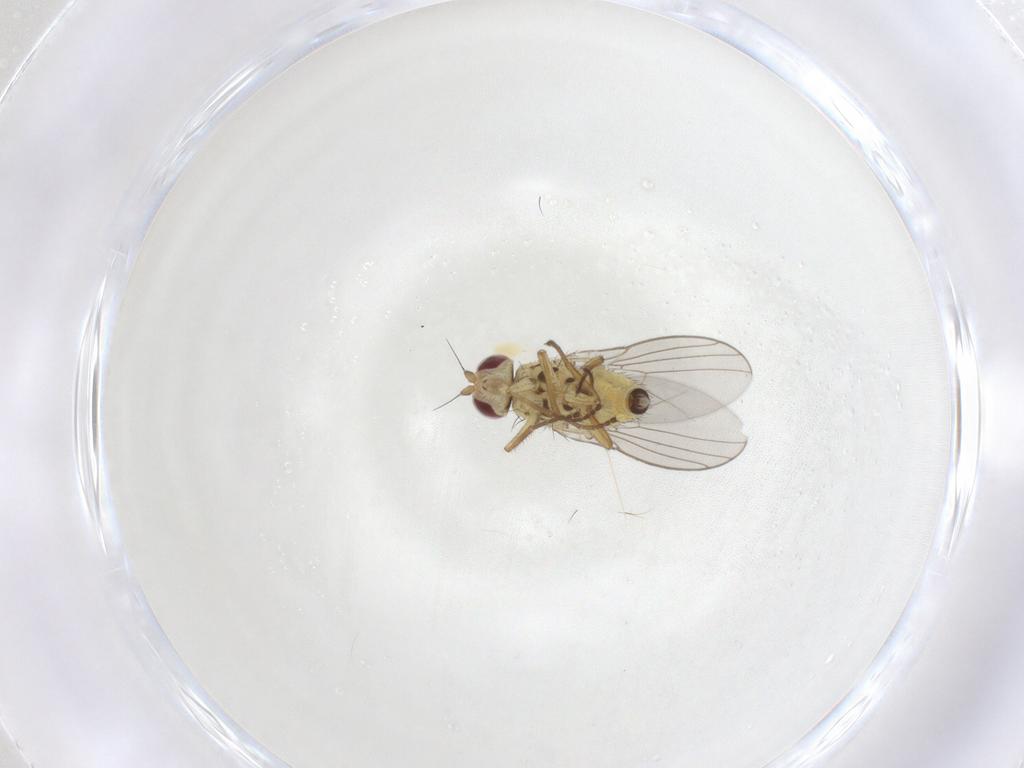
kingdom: Animalia
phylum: Arthropoda
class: Insecta
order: Diptera
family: Agromyzidae
